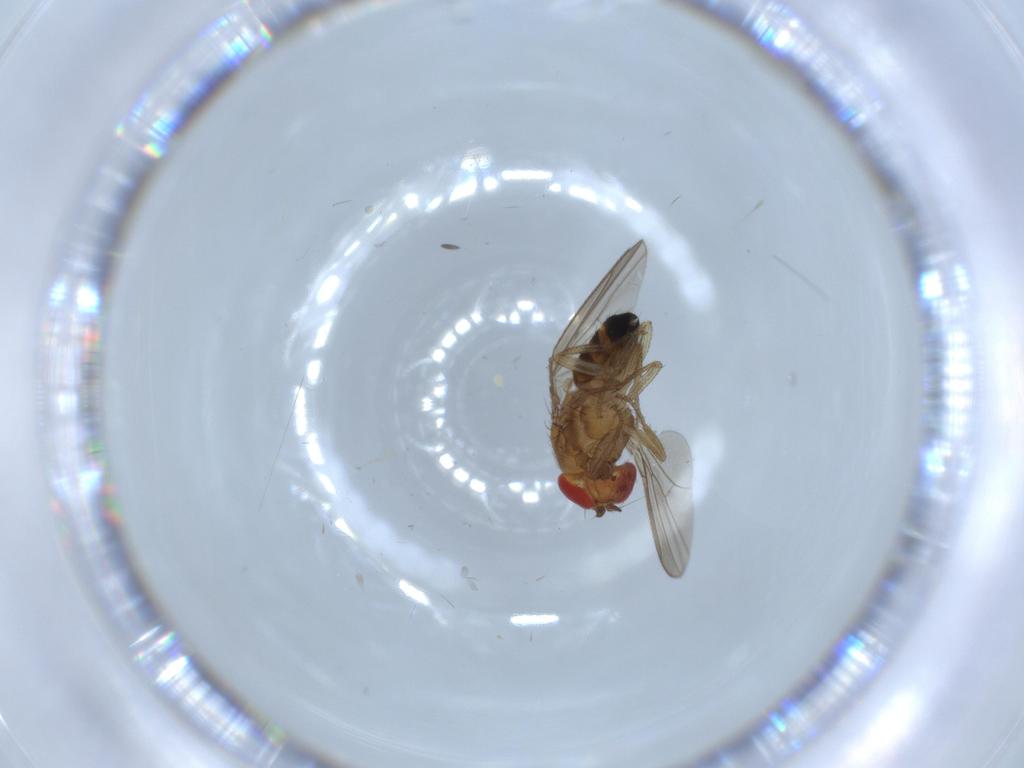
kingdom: Animalia
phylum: Arthropoda
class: Insecta
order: Diptera
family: Drosophilidae
